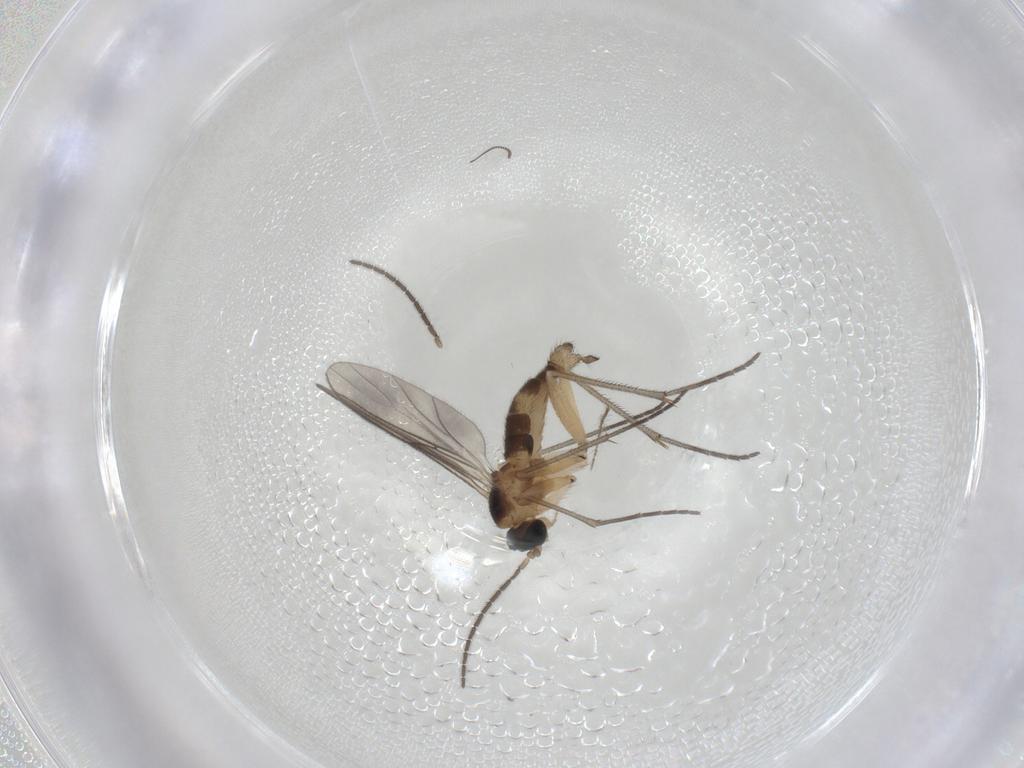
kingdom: Animalia
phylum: Arthropoda
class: Insecta
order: Diptera
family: Sciaridae
